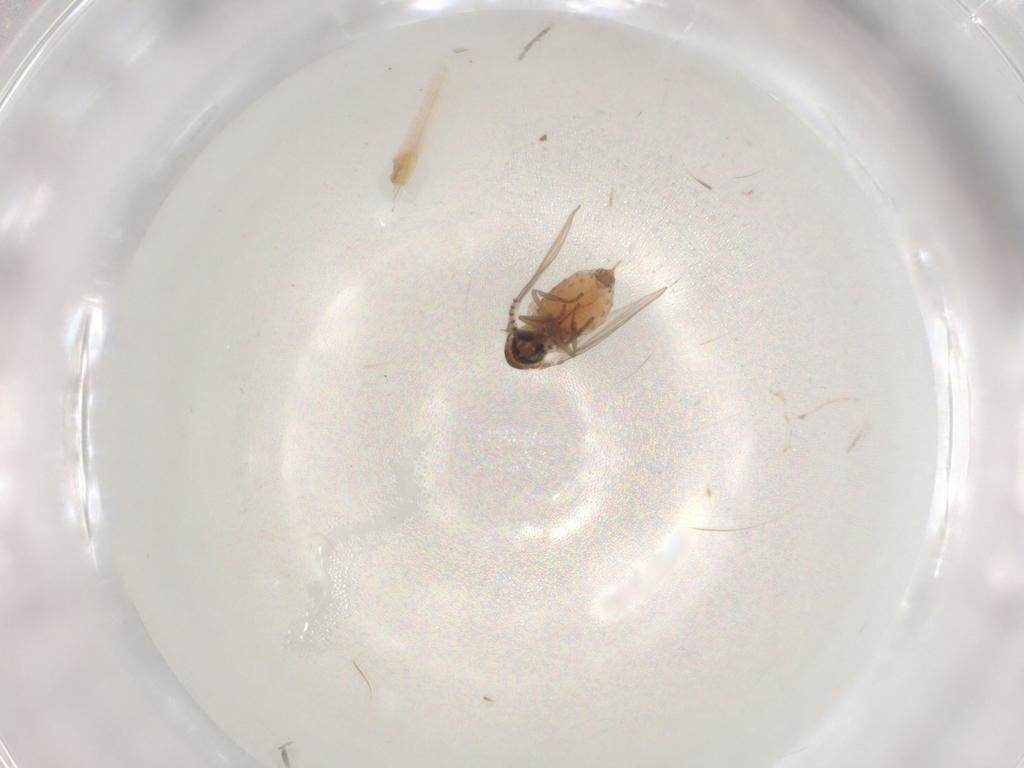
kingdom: Animalia
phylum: Arthropoda
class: Insecta
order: Diptera
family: Psychodidae
